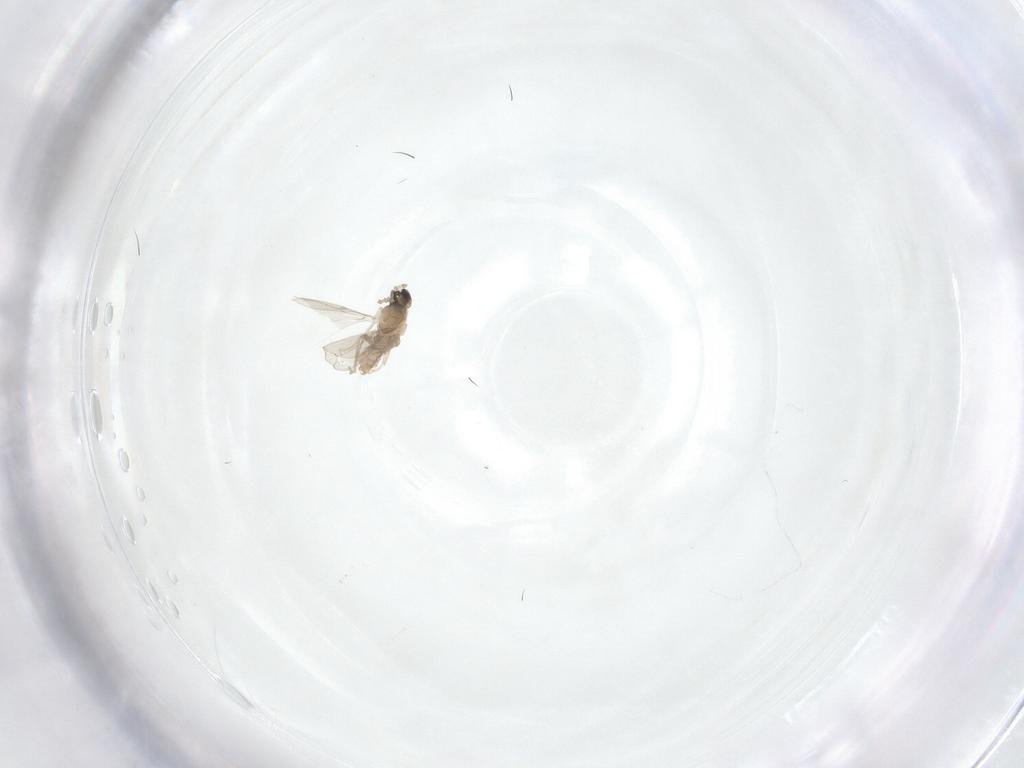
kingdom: Animalia
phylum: Arthropoda
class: Insecta
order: Diptera
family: Cecidomyiidae
